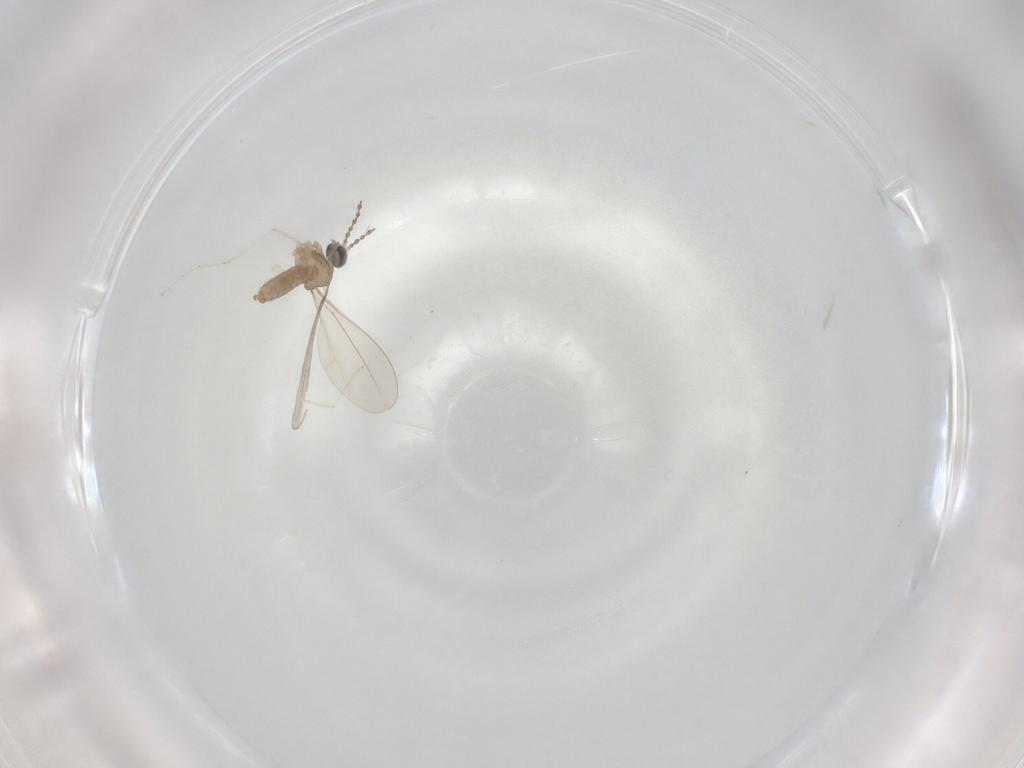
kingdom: Animalia
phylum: Arthropoda
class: Insecta
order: Diptera
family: Cecidomyiidae
